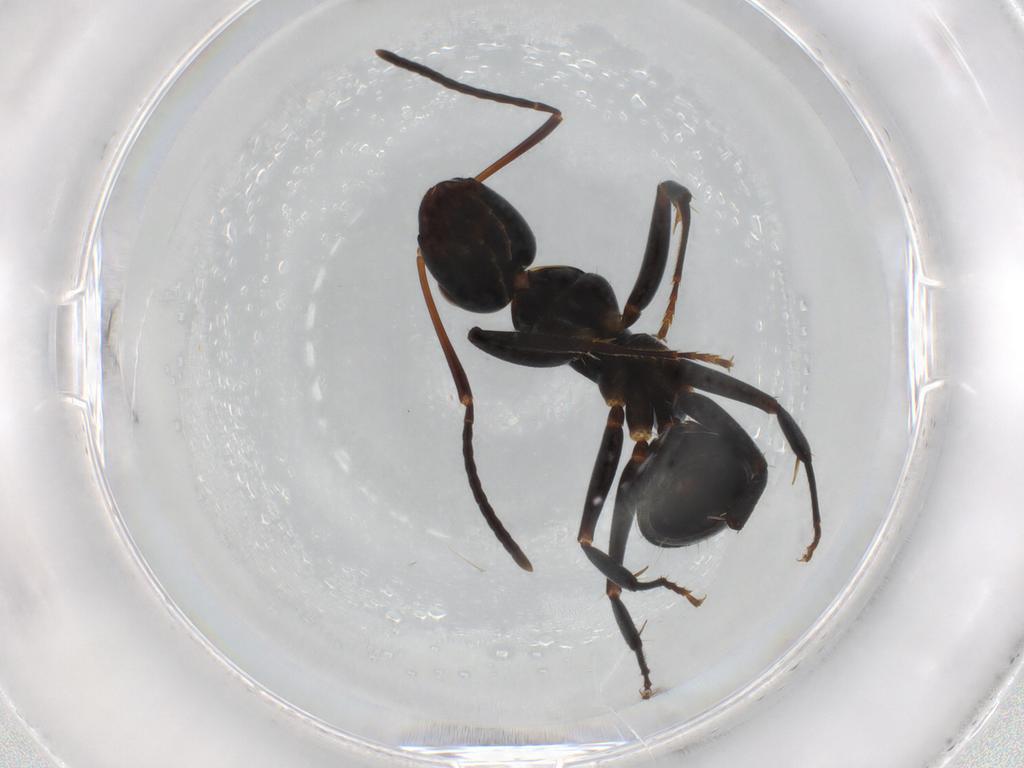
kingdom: Animalia
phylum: Arthropoda
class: Insecta
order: Hymenoptera
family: Formicidae
